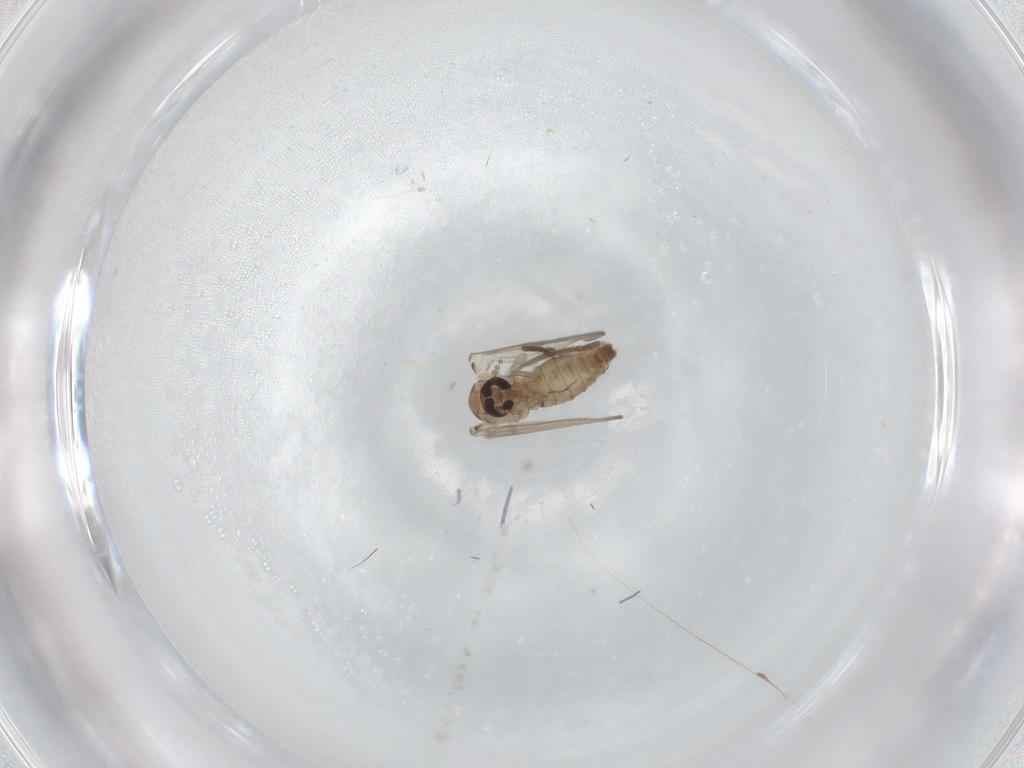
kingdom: Animalia
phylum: Arthropoda
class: Insecta
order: Diptera
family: Psychodidae
